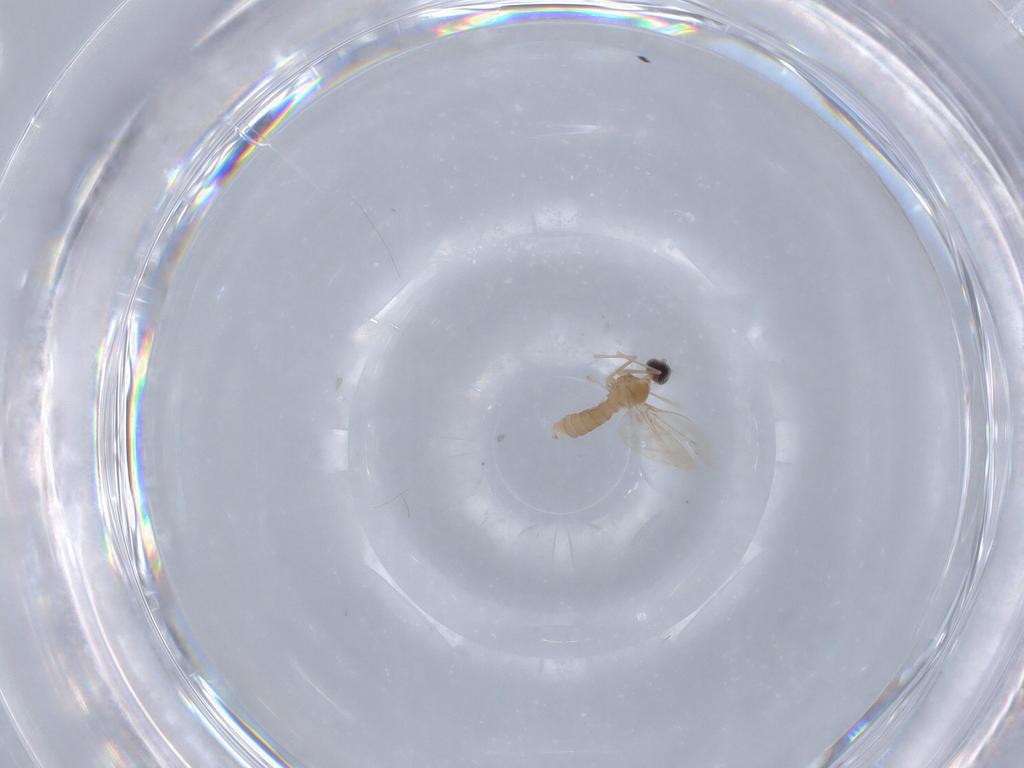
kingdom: Animalia
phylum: Arthropoda
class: Insecta
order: Diptera
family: Cecidomyiidae
